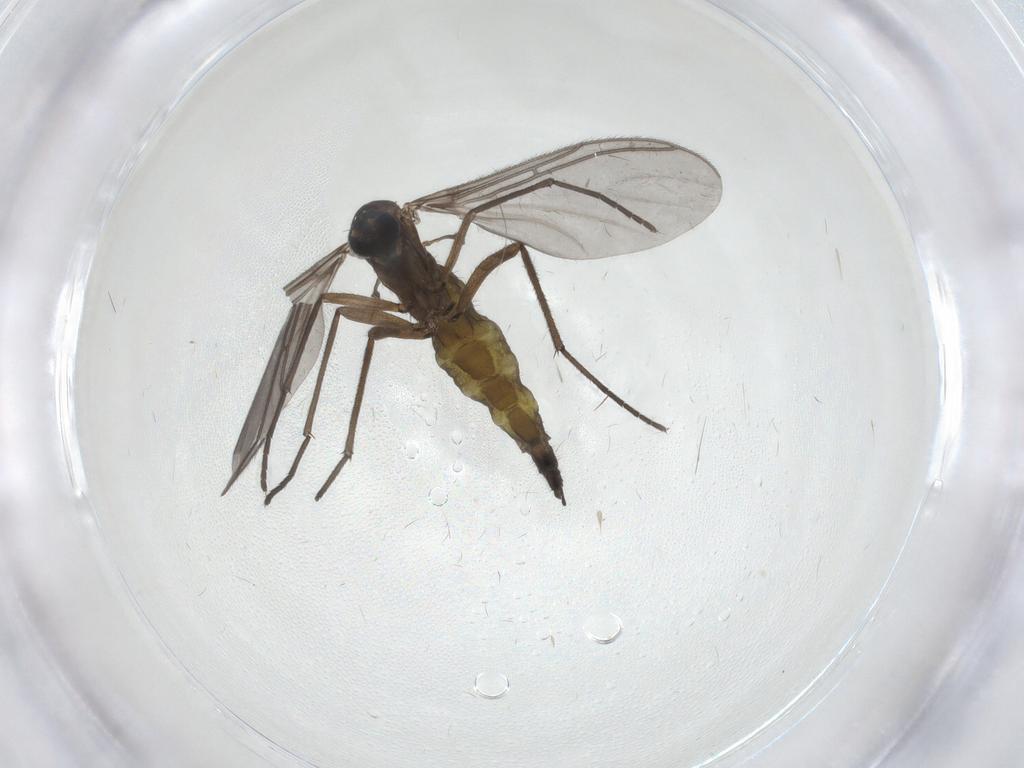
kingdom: Animalia
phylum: Arthropoda
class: Insecta
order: Diptera
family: Sciaridae
